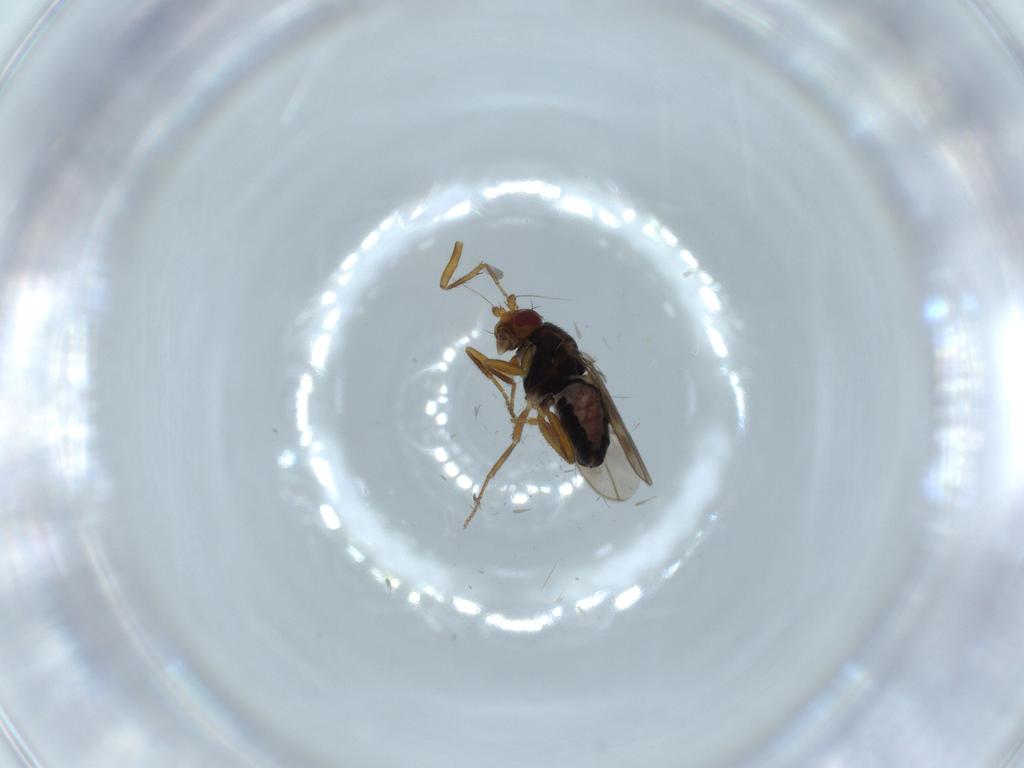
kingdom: Animalia
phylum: Arthropoda
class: Insecta
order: Diptera
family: Sphaeroceridae
